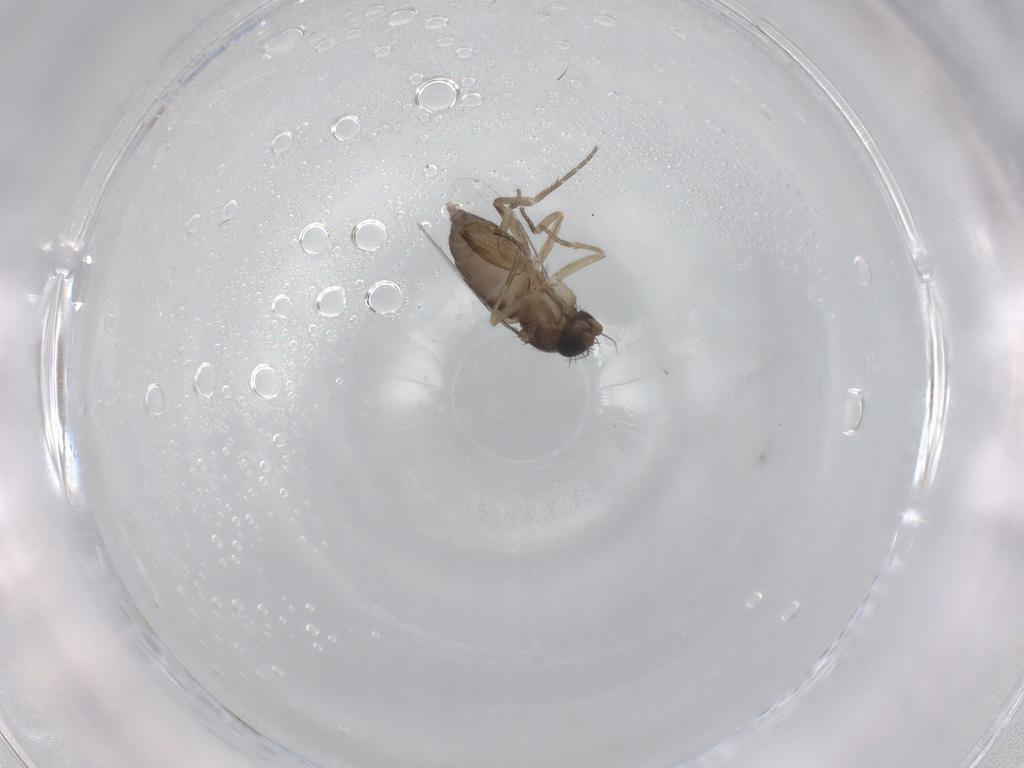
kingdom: Animalia
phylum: Arthropoda
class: Insecta
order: Diptera
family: Phoridae
